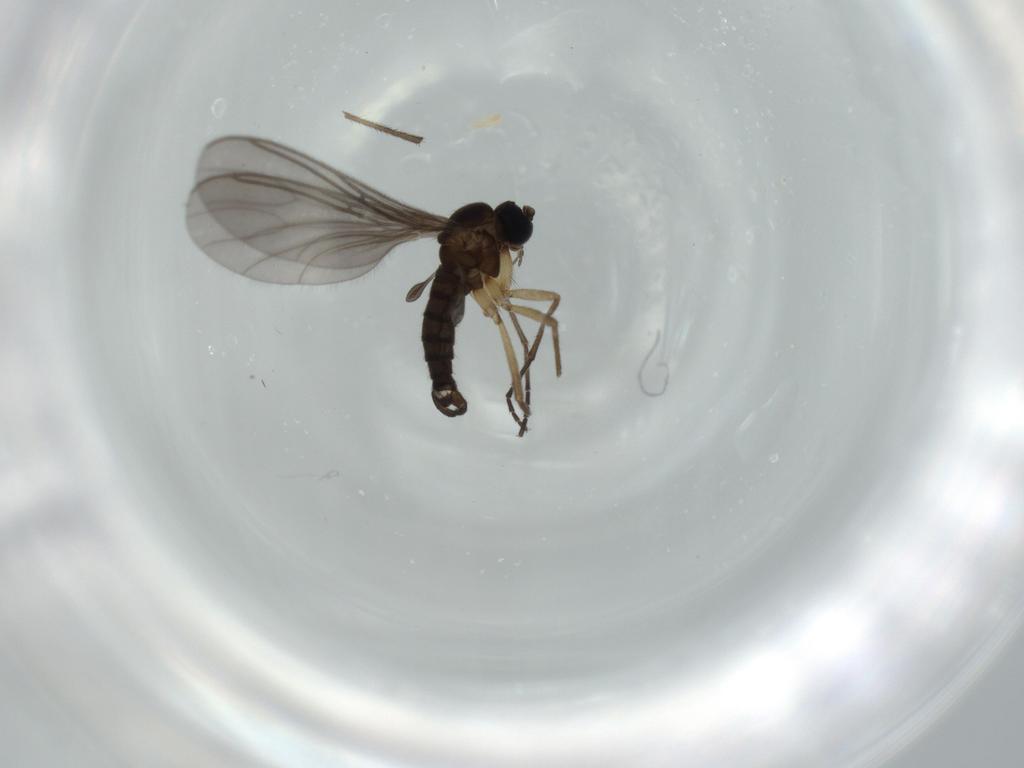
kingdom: Animalia
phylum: Arthropoda
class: Insecta
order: Diptera
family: Sciaridae
